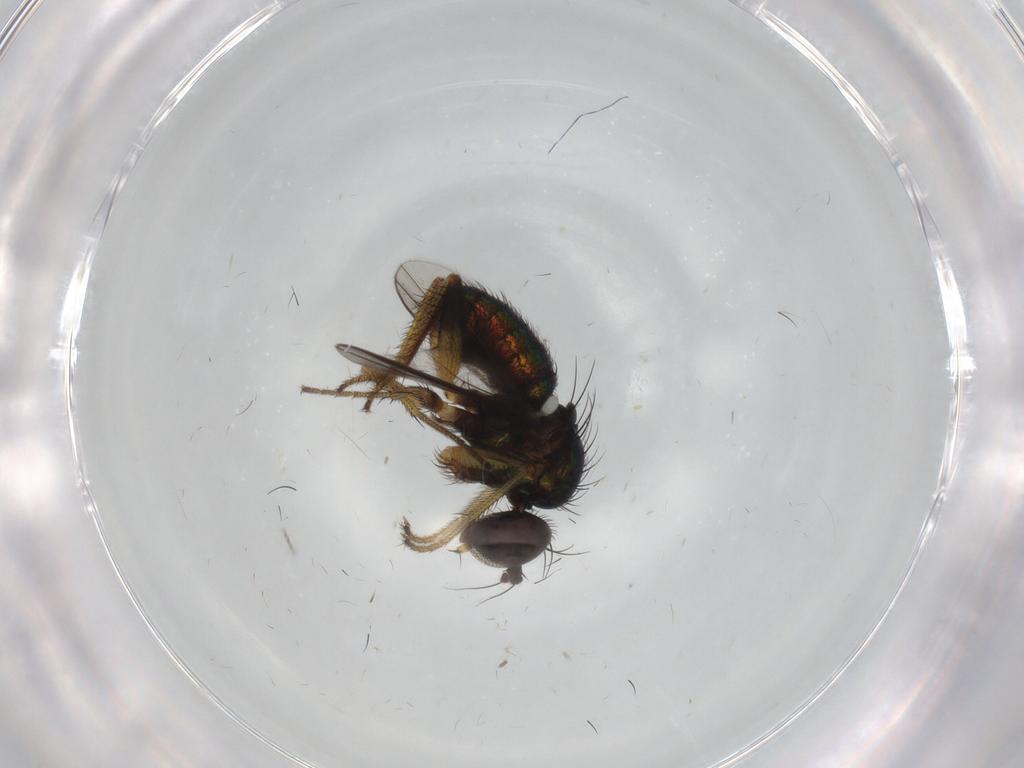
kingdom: Animalia
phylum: Arthropoda
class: Insecta
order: Diptera
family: Dolichopodidae
